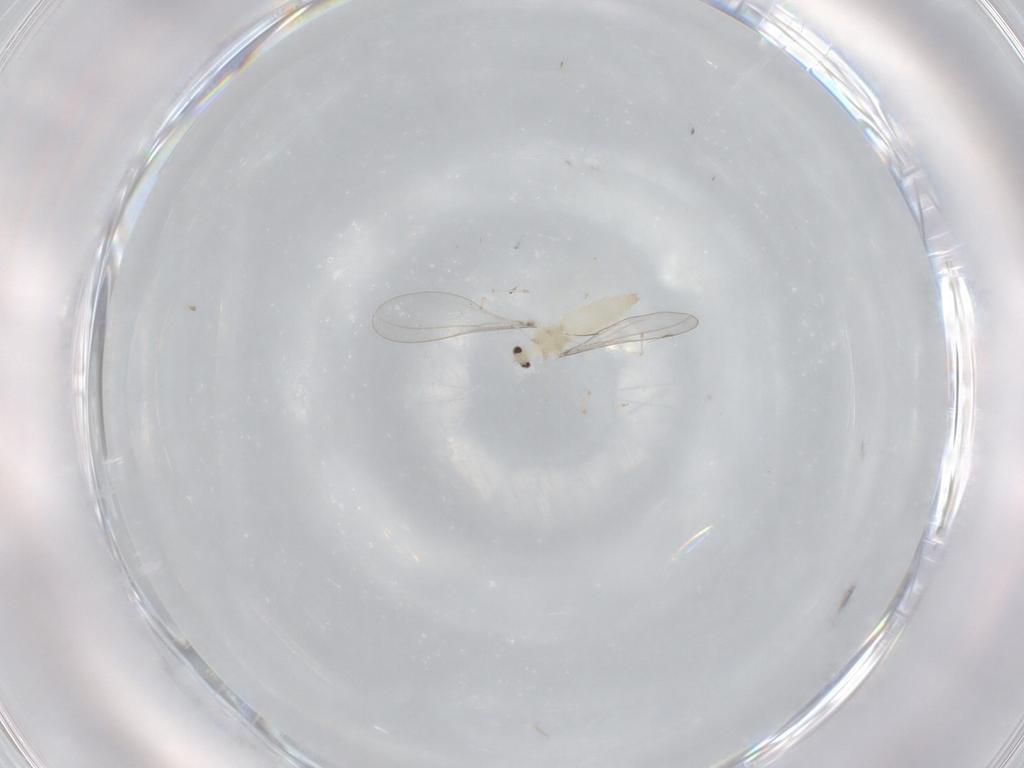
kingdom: Animalia
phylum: Arthropoda
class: Insecta
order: Diptera
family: Cecidomyiidae
